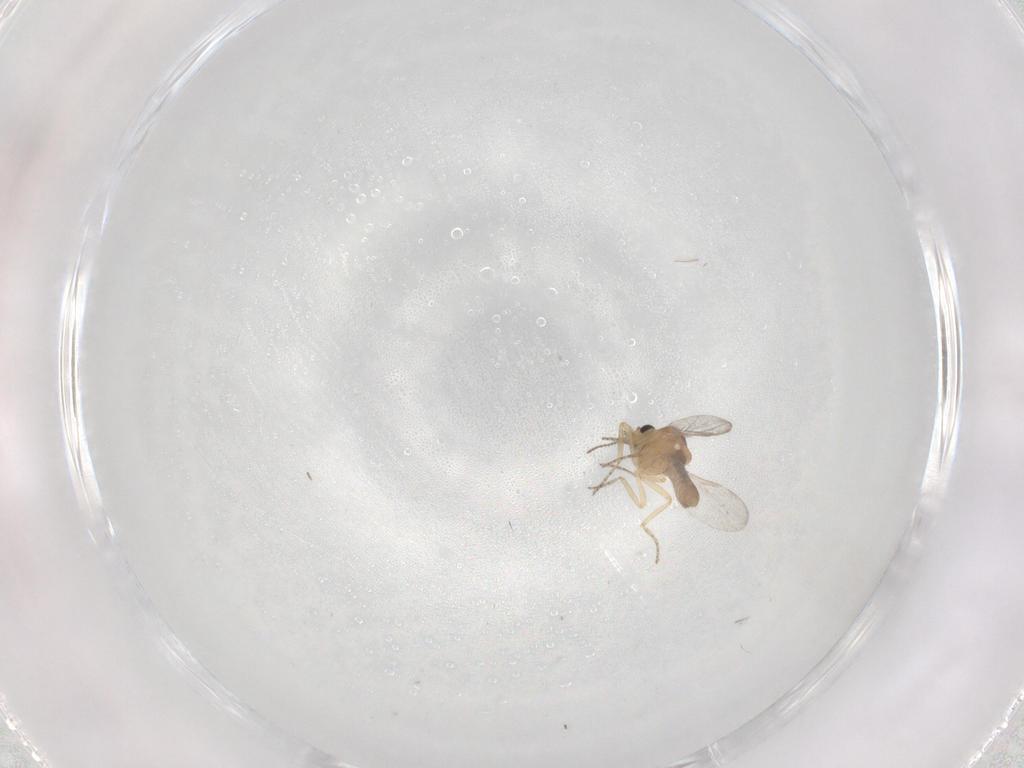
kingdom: Animalia
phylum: Arthropoda
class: Insecta
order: Diptera
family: Ceratopogonidae
